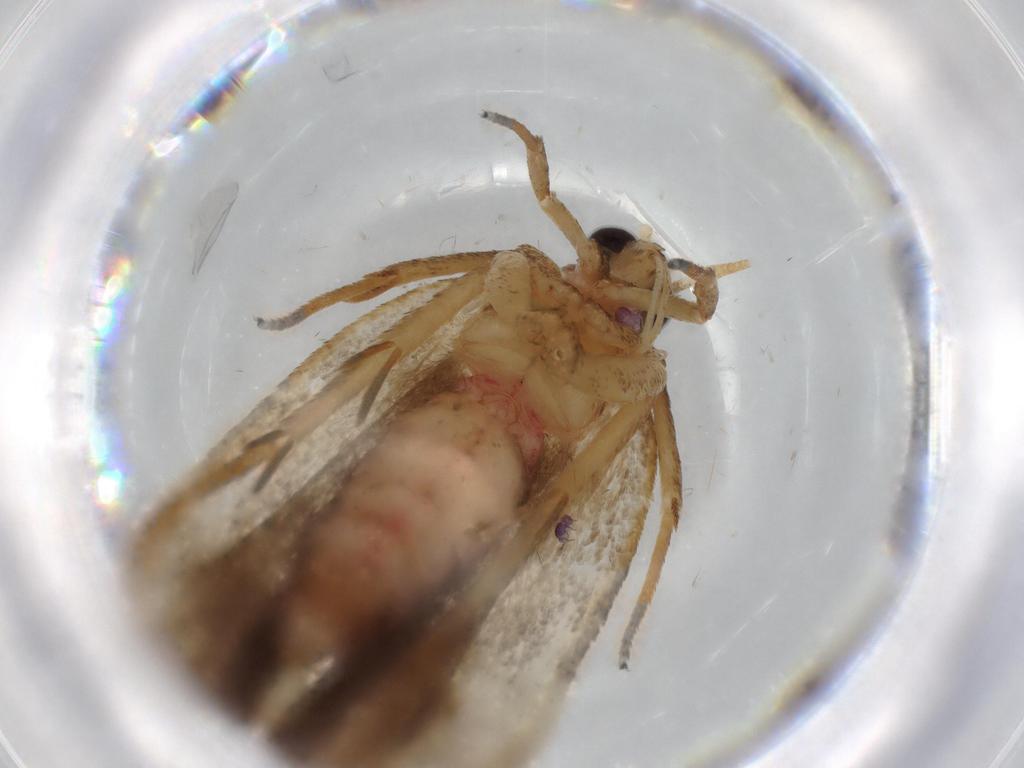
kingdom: Animalia
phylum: Arthropoda
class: Insecta
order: Lepidoptera
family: Autostichidae
